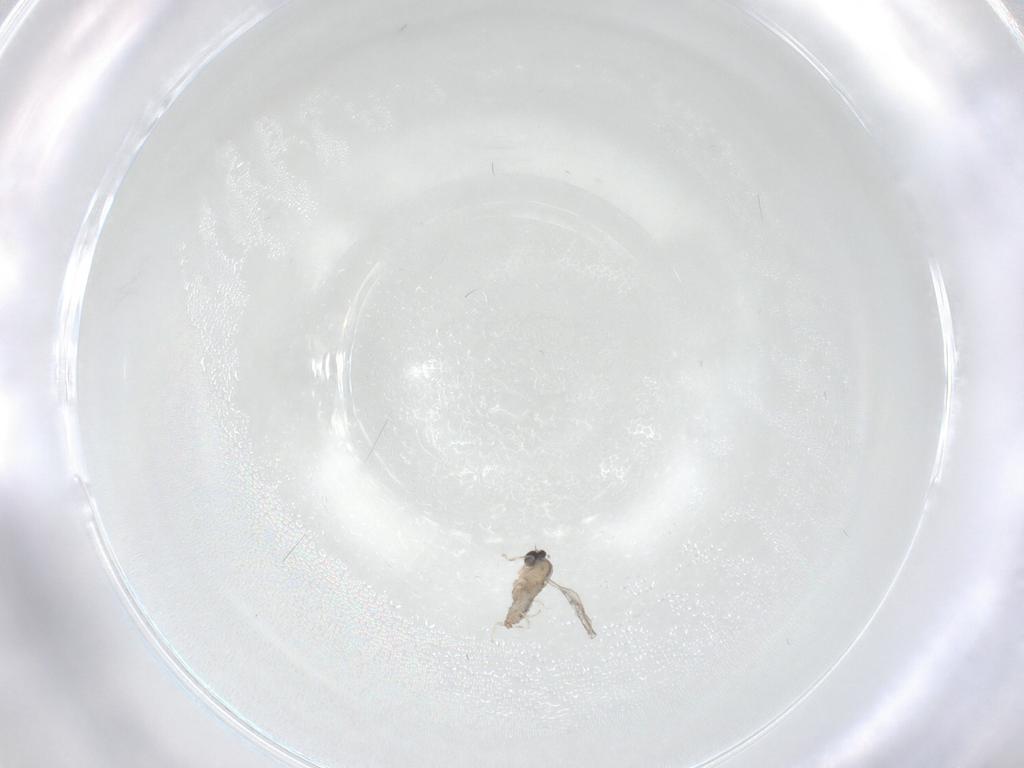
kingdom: Animalia
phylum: Arthropoda
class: Insecta
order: Diptera
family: Cecidomyiidae
